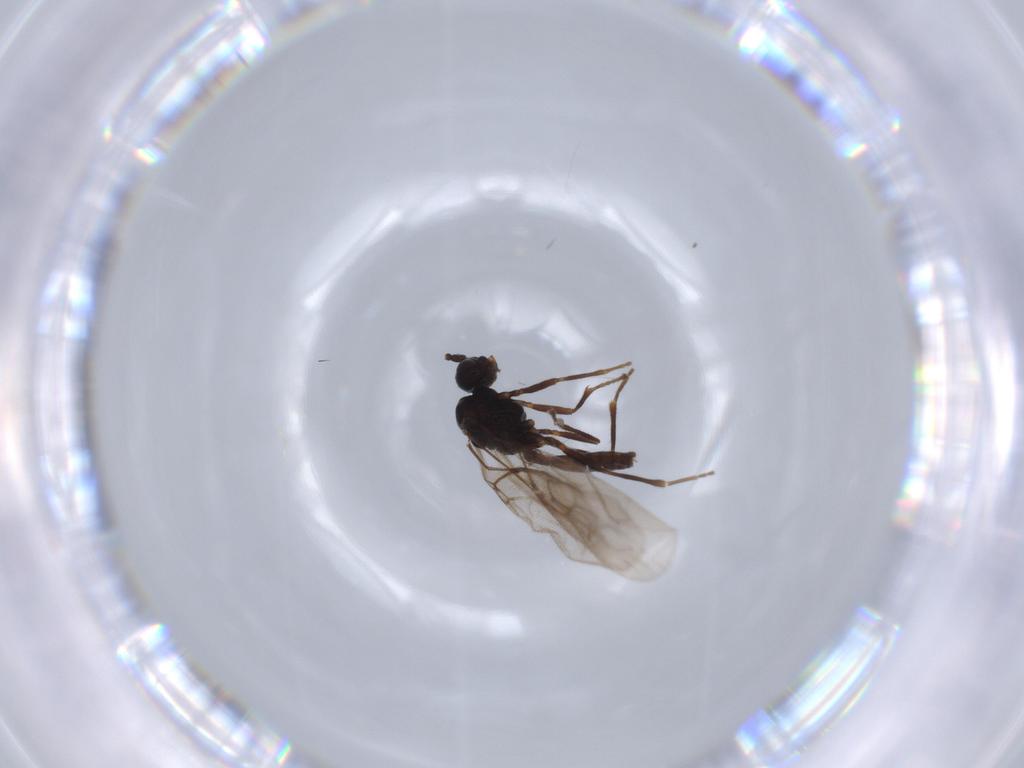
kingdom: Animalia
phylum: Arthropoda
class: Insecta
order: Hymenoptera
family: Braconidae
